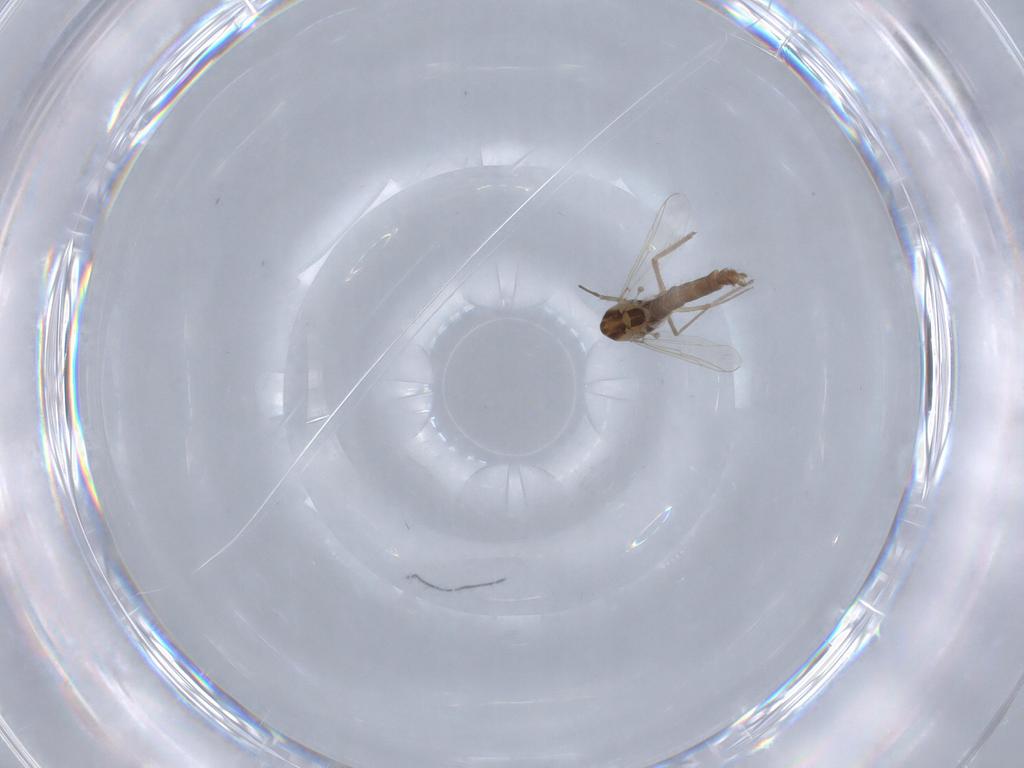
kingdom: Animalia
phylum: Arthropoda
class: Insecta
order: Diptera
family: Chironomidae
